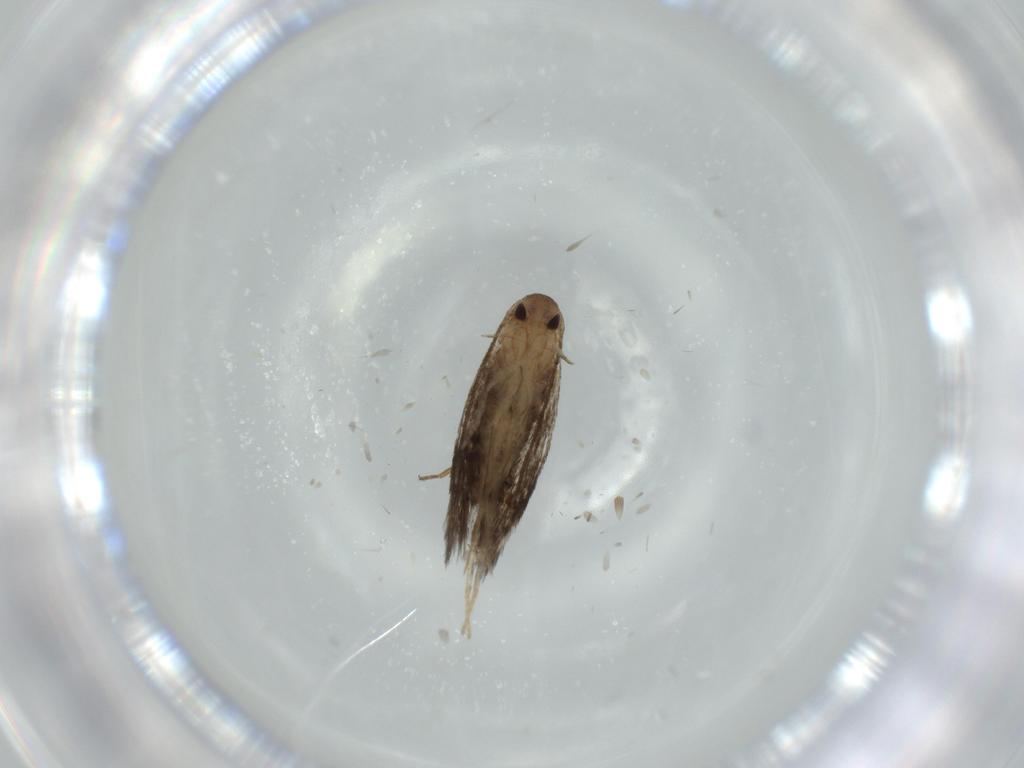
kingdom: Animalia
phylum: Arthropoda
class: Insecta
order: Lepidoptera
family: Cosmopterigidae
